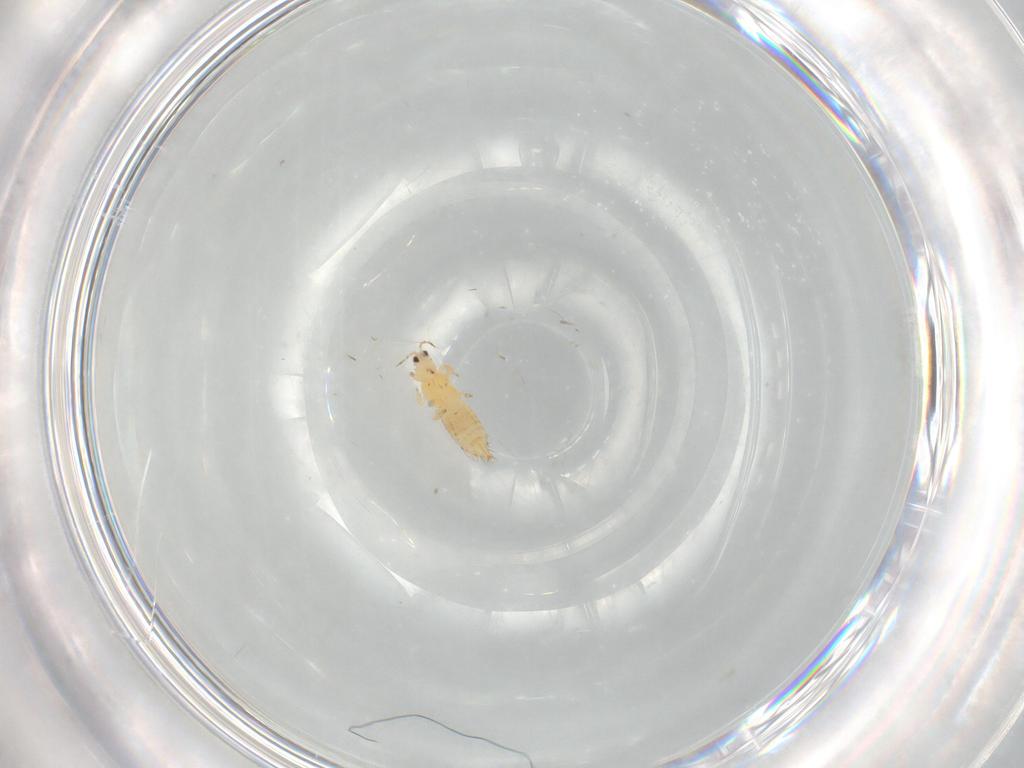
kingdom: Animalia
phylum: Arthropoda
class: Insecta
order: Thysanoptera
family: Thripidae
